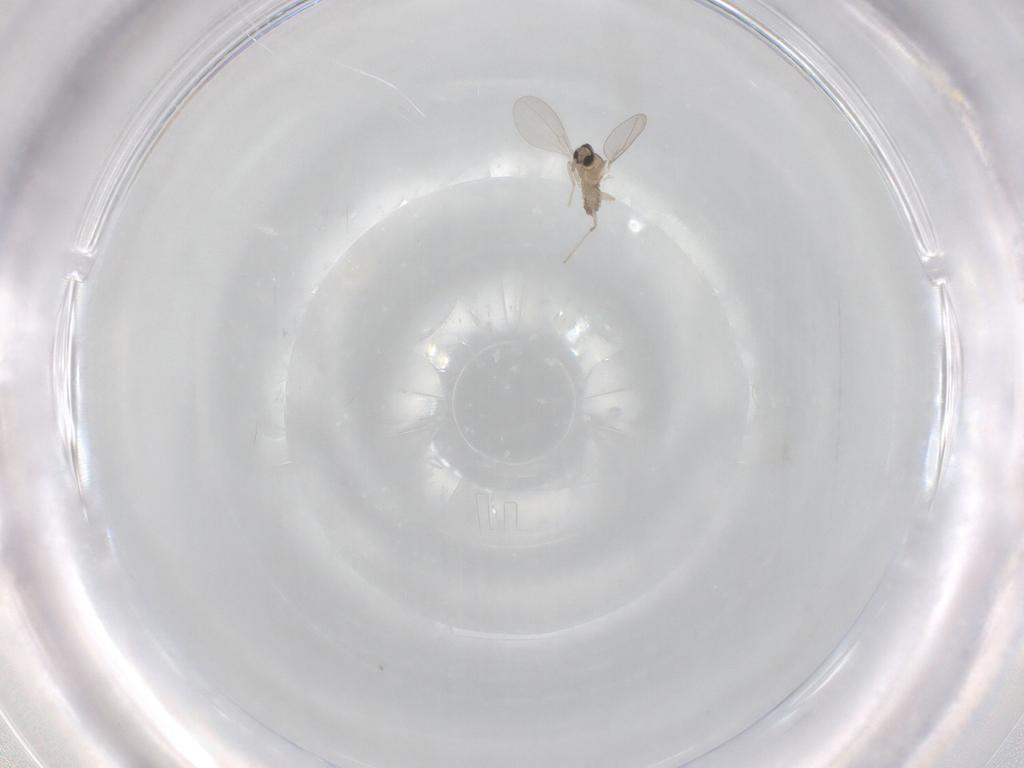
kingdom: Animalia
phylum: Arthropoda
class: Insecta
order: Diptera
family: Cecidomyiidae
